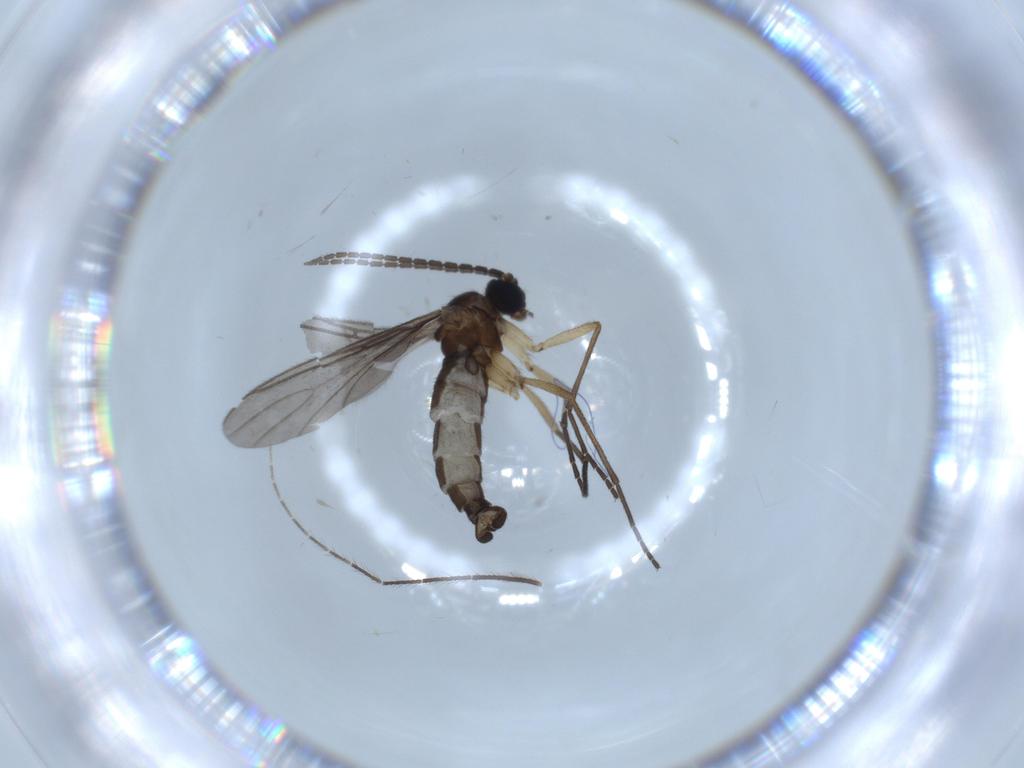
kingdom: Animalia
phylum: Arthropoda
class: Insecta
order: Diptera
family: Sciaridae
